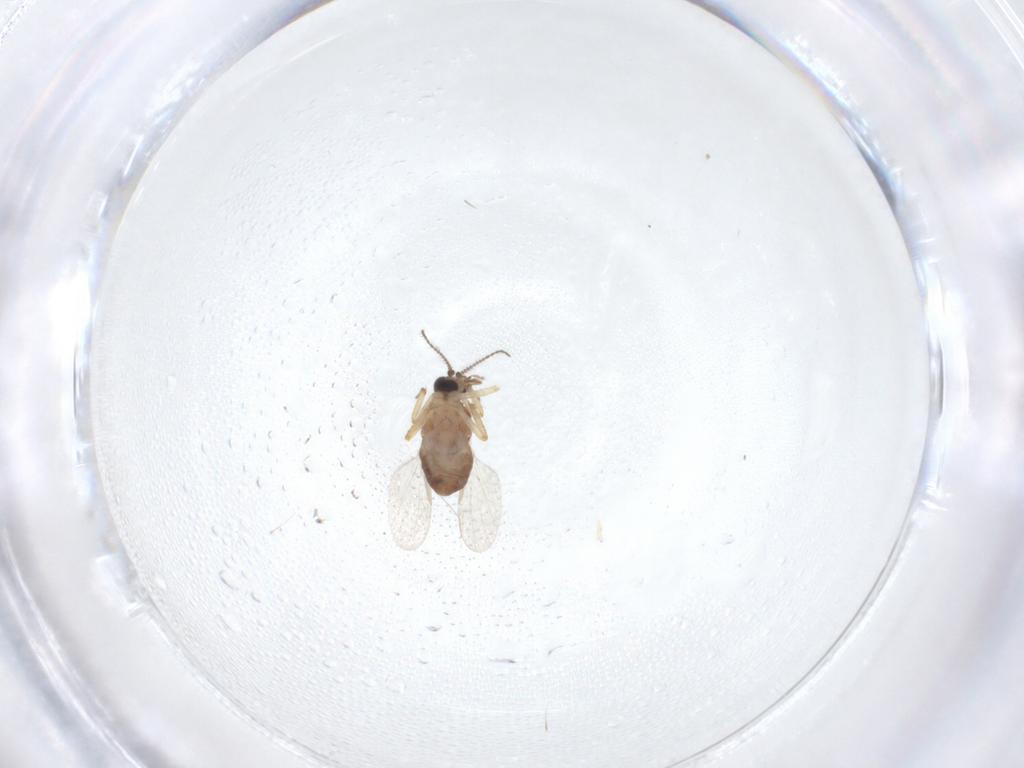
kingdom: Animalia
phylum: Arthropoda
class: Insecta
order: Diptera
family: Ceratopogonidae
